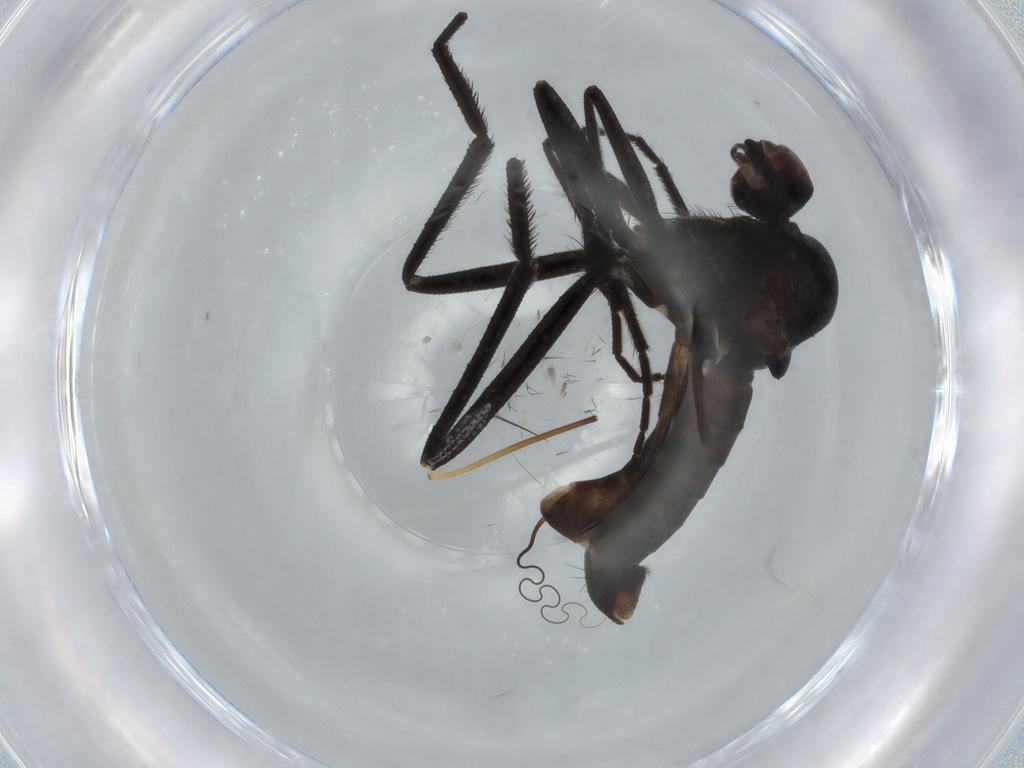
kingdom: Animalia
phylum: Arthropoda
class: Insecta
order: Diptera
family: Empididae
